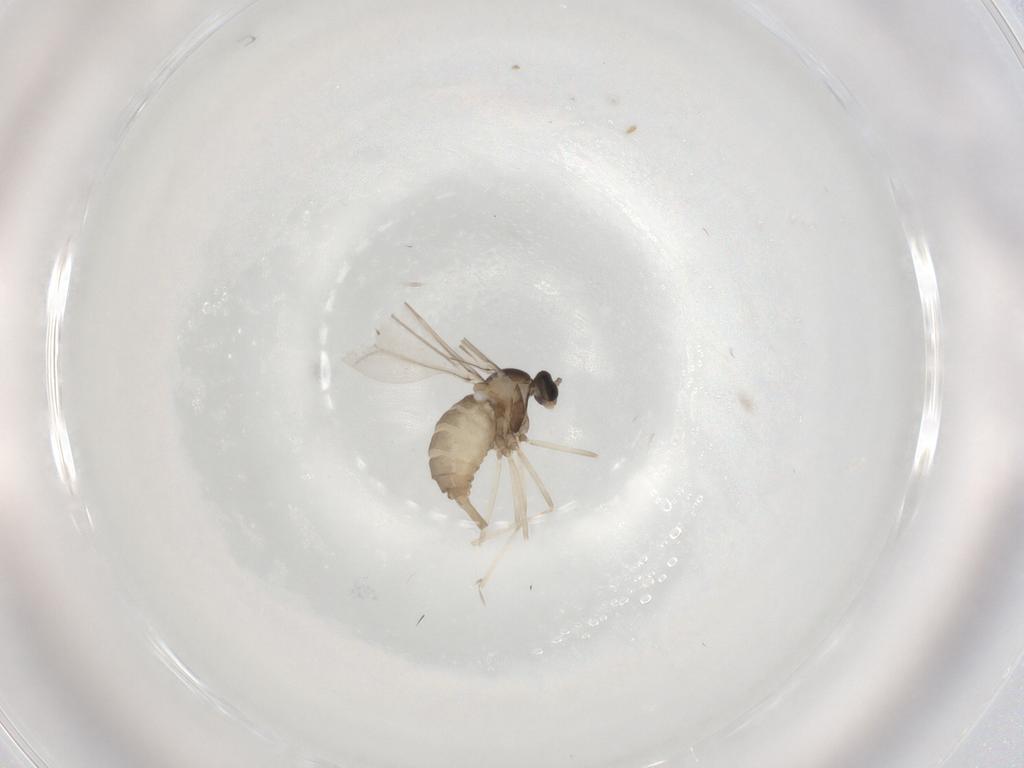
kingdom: Animalia
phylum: Arthropoda
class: Insecta
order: Diptera
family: Cecidomyiidae
